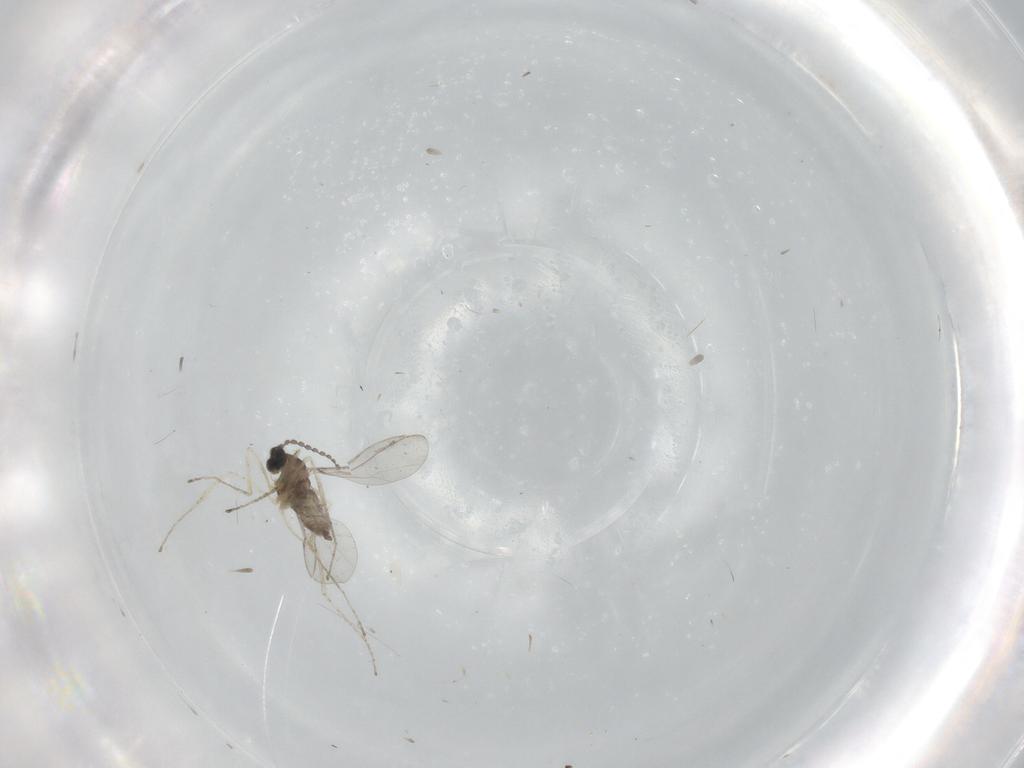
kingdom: Animalia
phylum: Arthropoda
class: Insecta
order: Diptera
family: Cecidomyiidae
